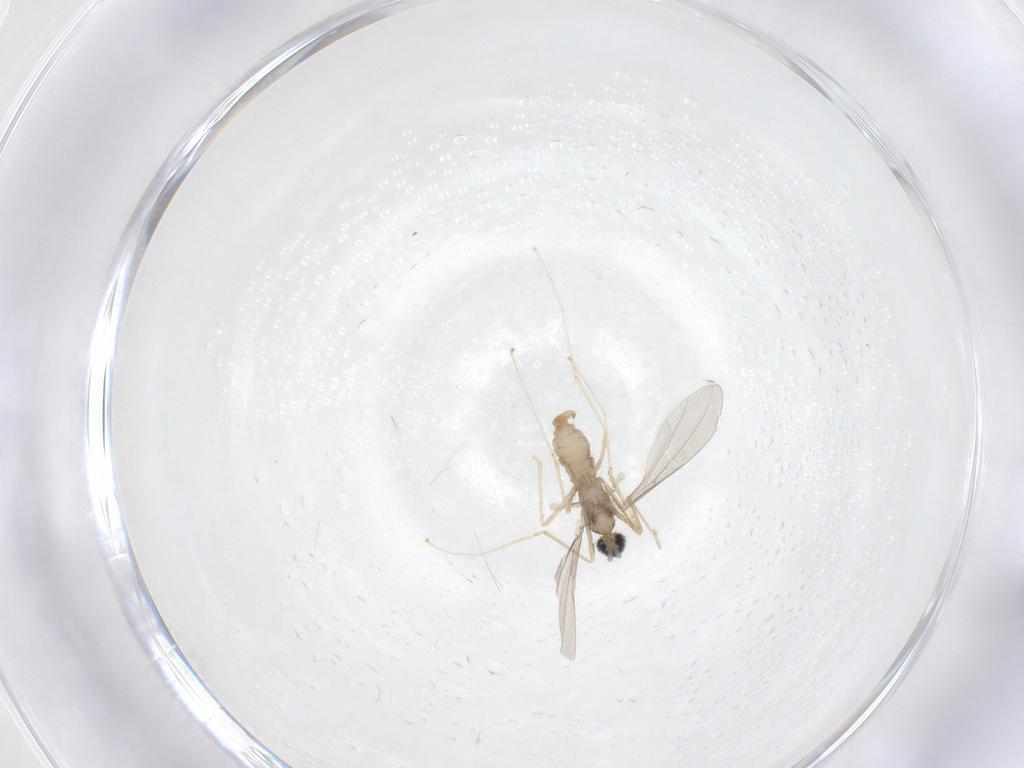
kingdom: Animalia
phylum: Arthropoda
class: Insecta
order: Diptera
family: Cecidomyiidae
